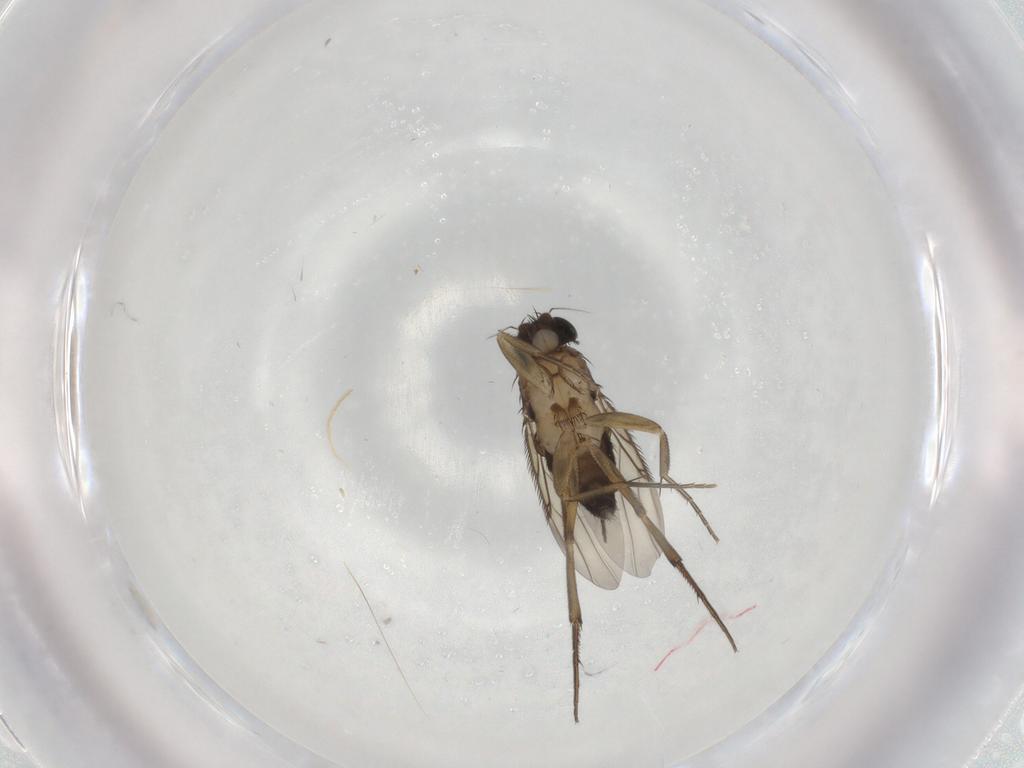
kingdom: Animalia
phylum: Arthropoda
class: Insecta
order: Diptera
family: Phoridae
